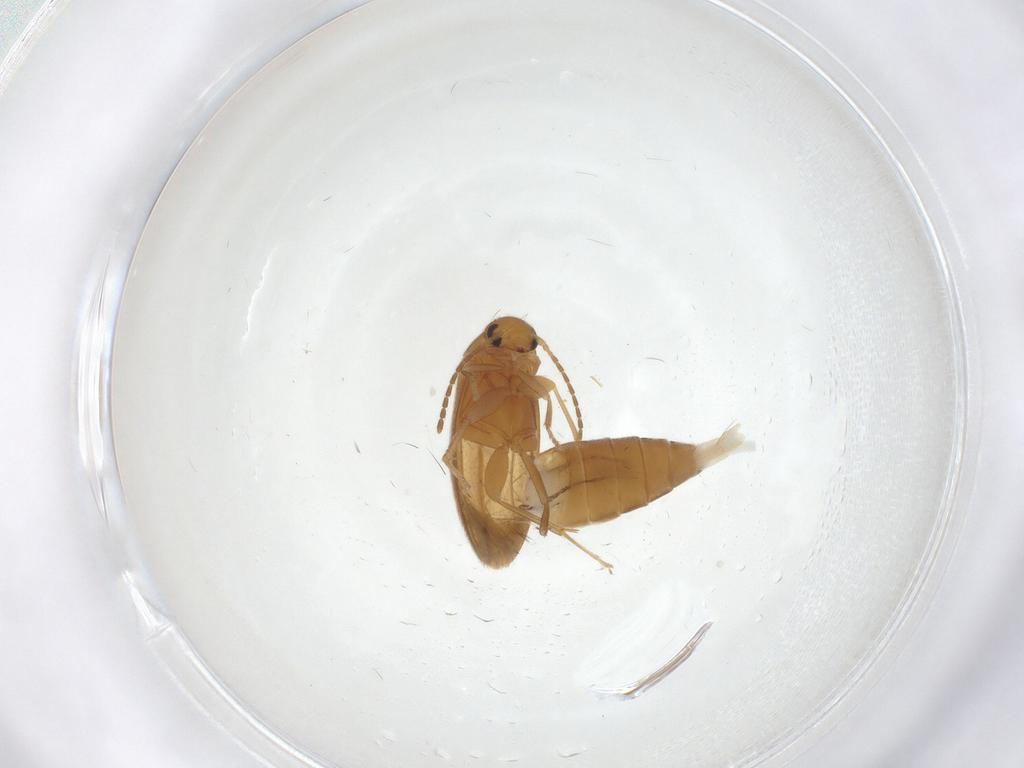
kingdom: Animalia
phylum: Arthropoda
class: Insecta
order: Coleoptera
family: Scraptiidae
